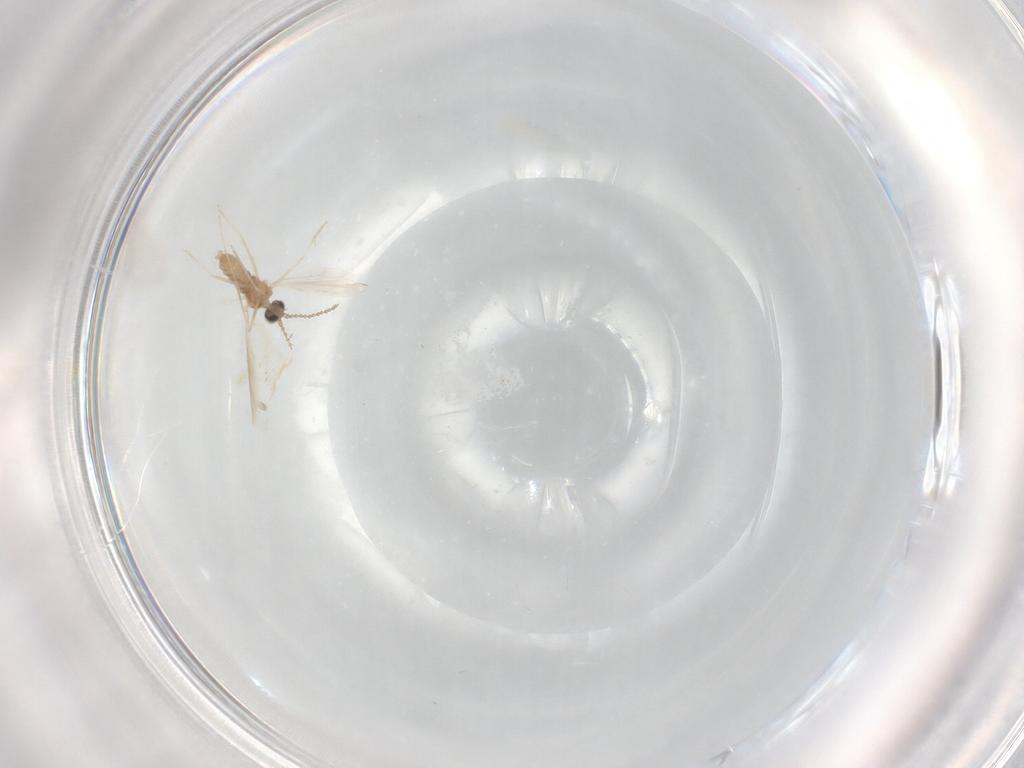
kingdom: Animalia
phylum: Arthropoda
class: Insecta
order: Diptera
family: Cecidomyiidae
